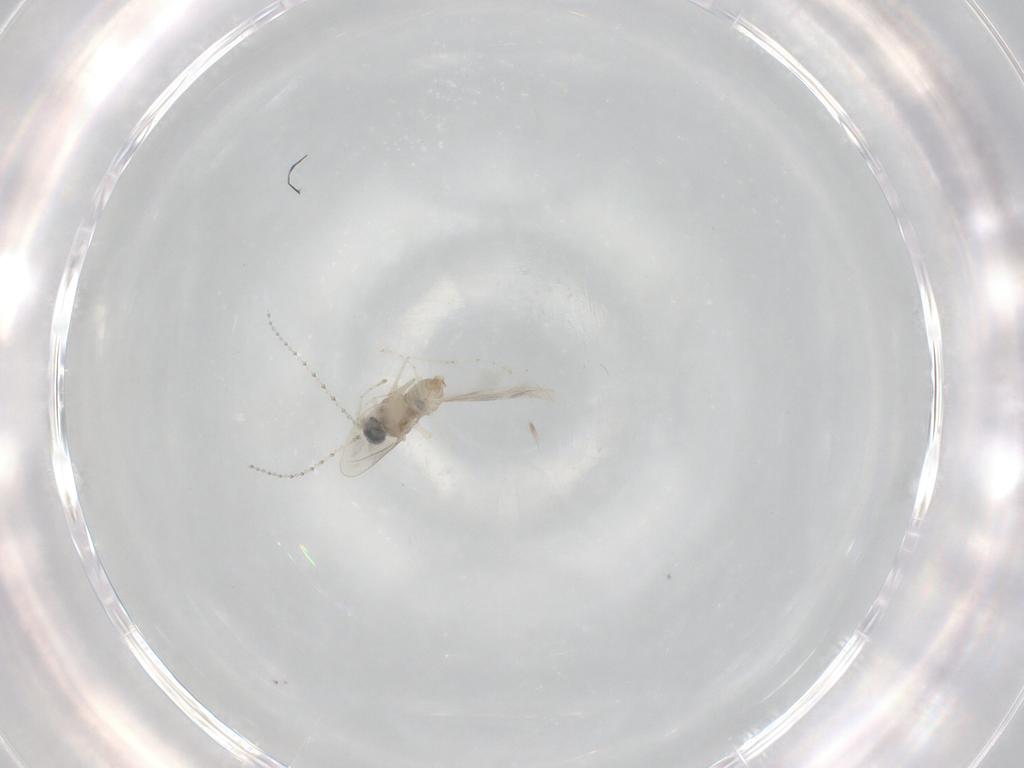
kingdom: Animalia
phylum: Arthropoda
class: Insecta
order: Diptera
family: Cecidomyiidae
